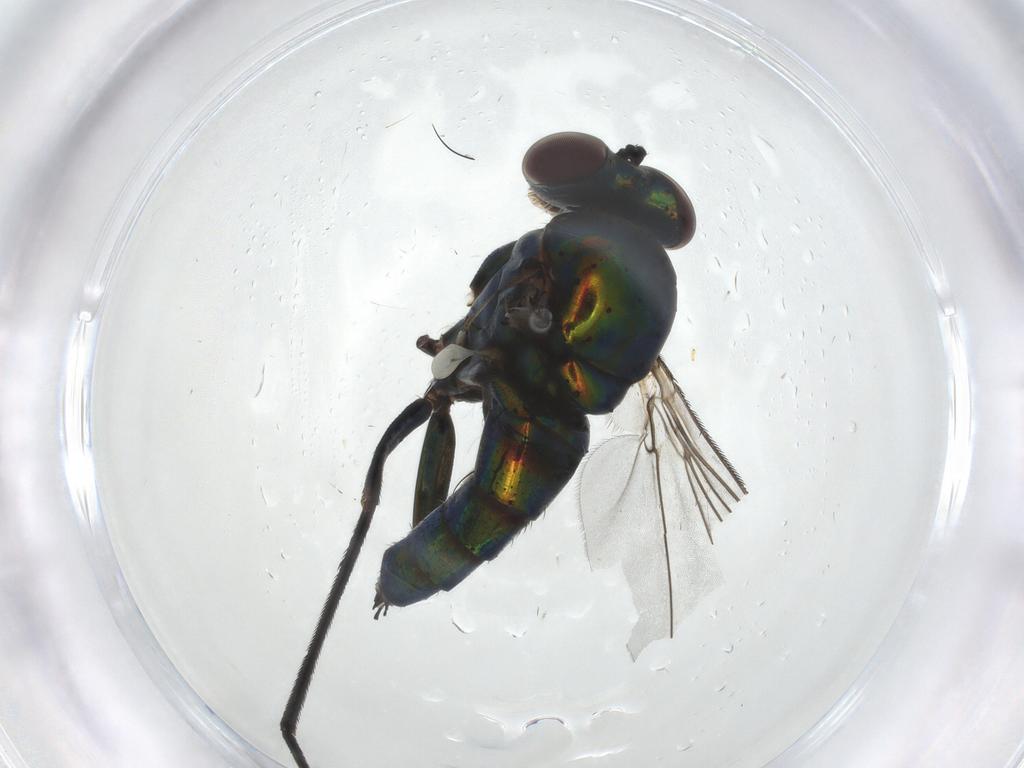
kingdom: Animalia
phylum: Arthropoda
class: Insecta
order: Diptera
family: Dolichopodidae
